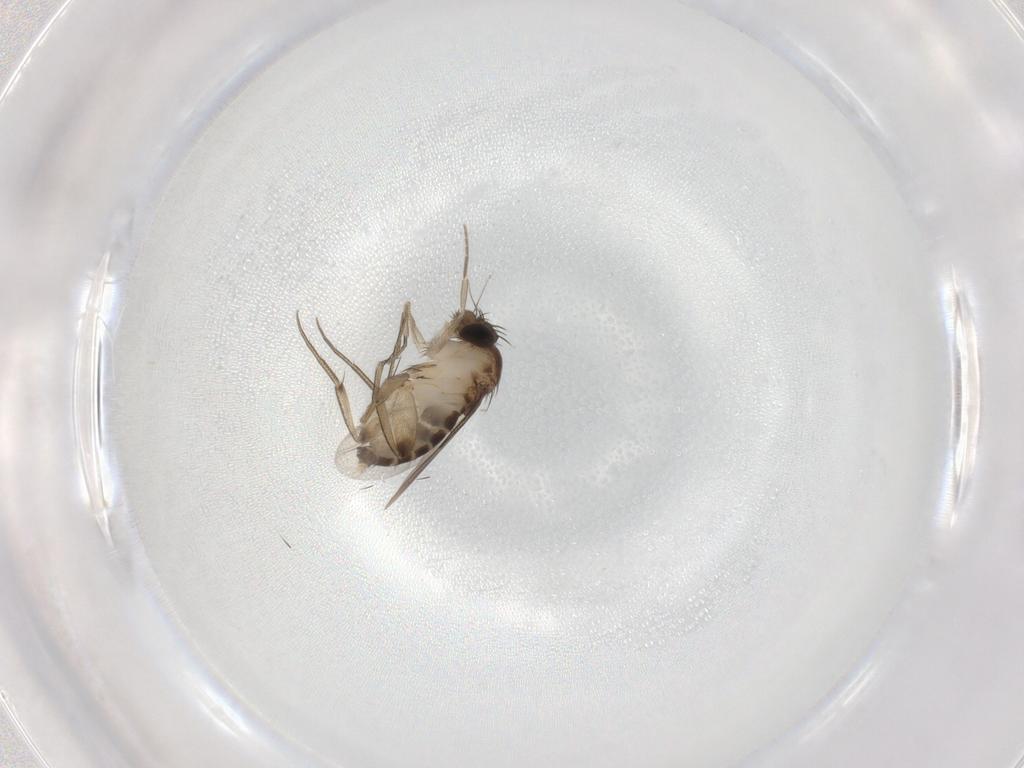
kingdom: Animalia
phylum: Arthropoda
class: Insecta
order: Diptera
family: Phoridae
